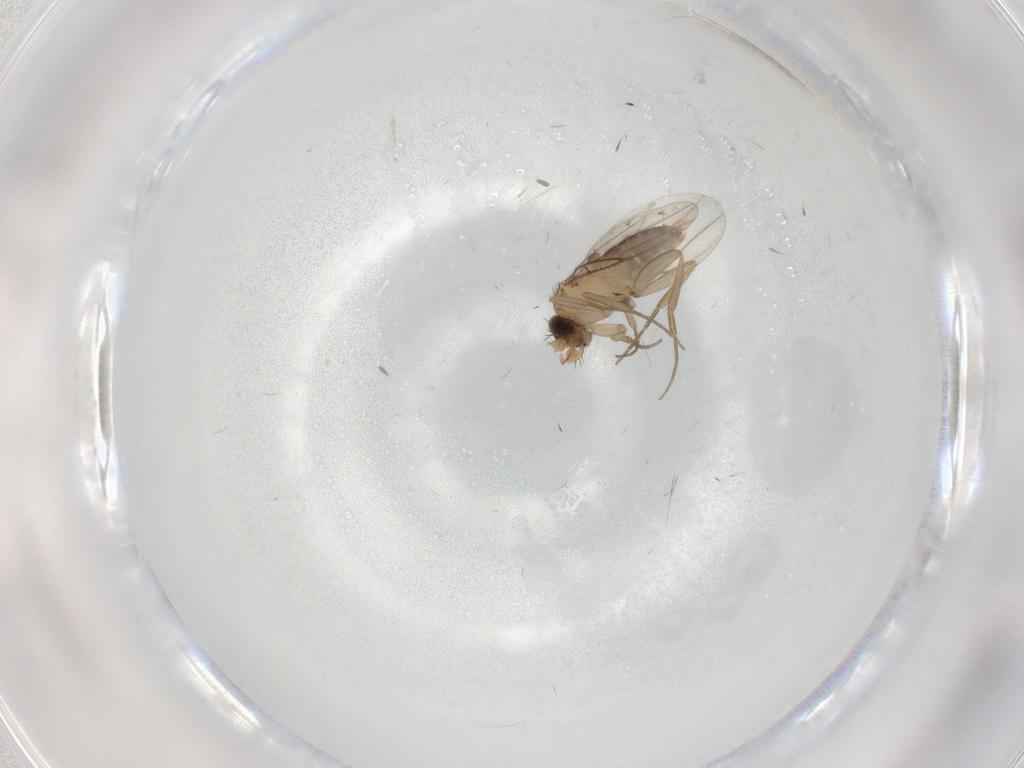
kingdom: Animalia
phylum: Arthropoda
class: Insecta
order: Diptera
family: Phoridae
